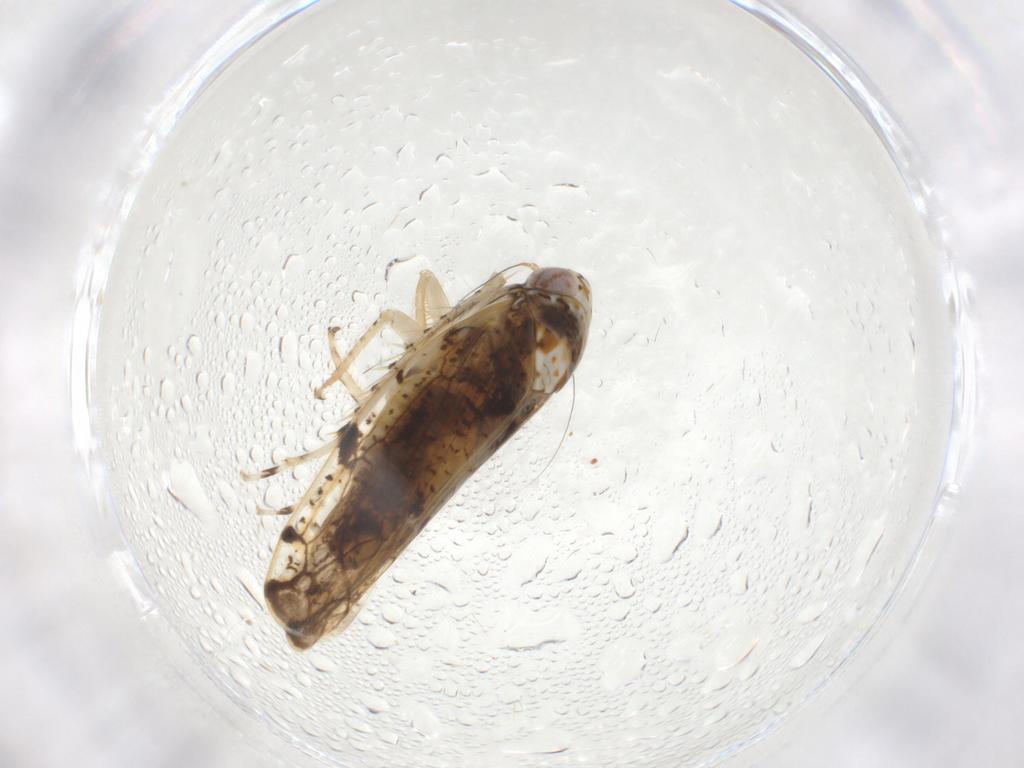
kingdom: Animalia
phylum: Arthropoda
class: Insecta
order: Hemiptera
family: Cicadellidae
